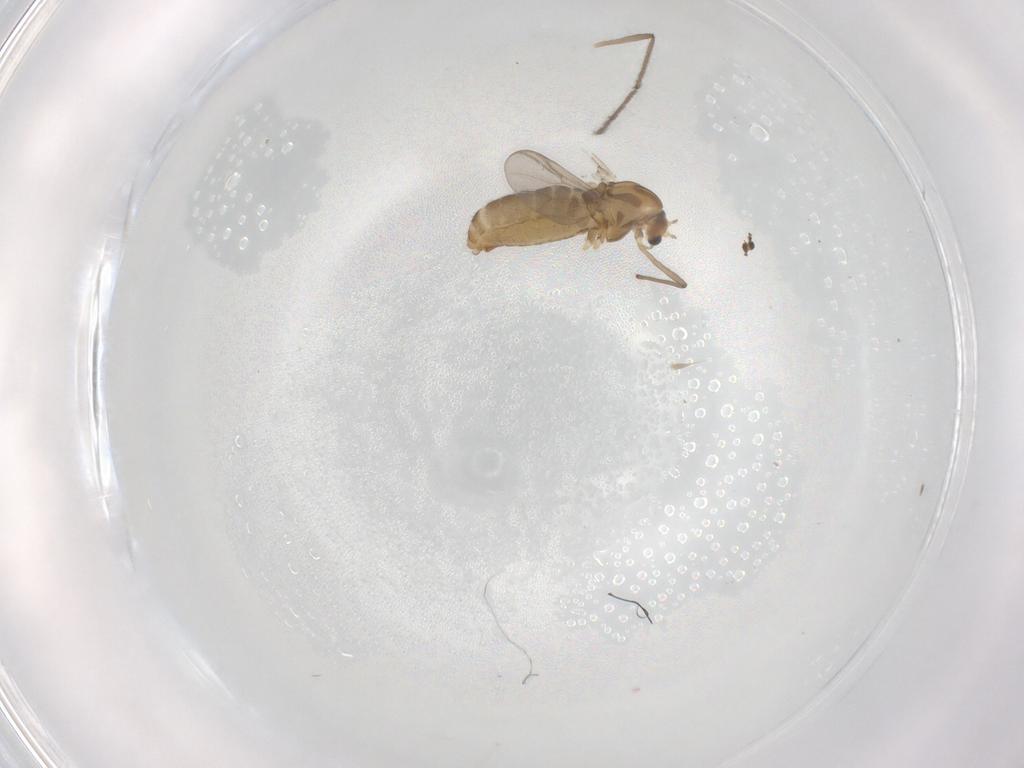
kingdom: Animalia
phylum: Arthropoda
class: Insecta
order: Diptera
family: Chironomidae
